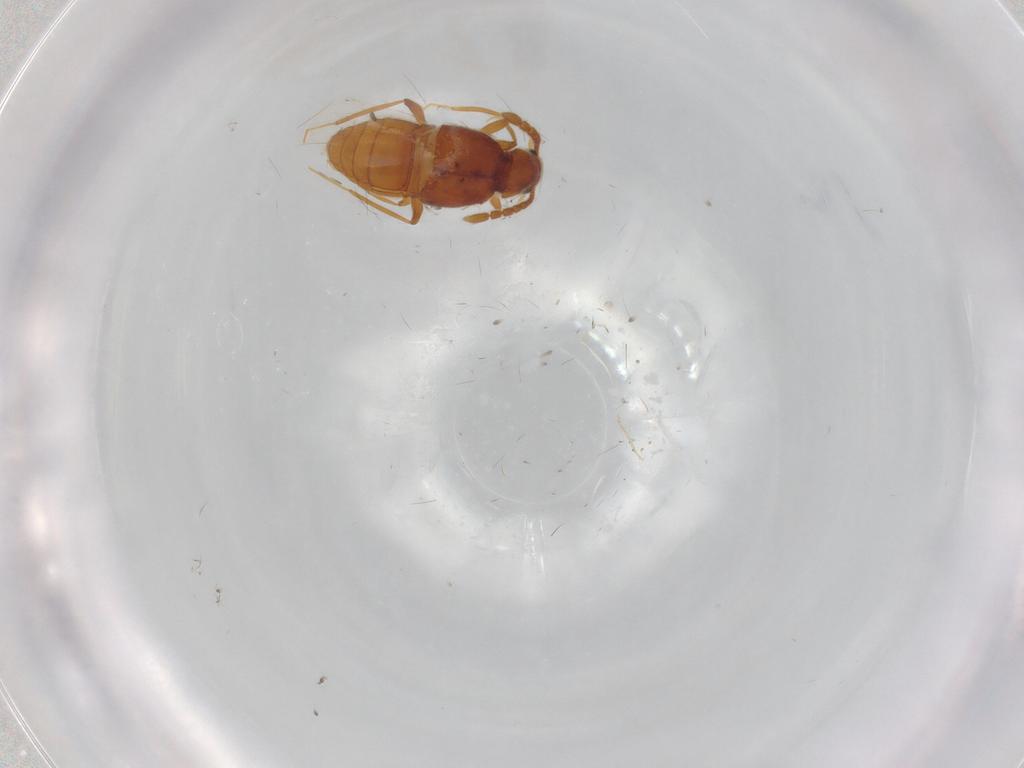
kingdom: Animalia
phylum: Arthropoda
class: Insecta
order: Coleoptera
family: Staphylinidae
